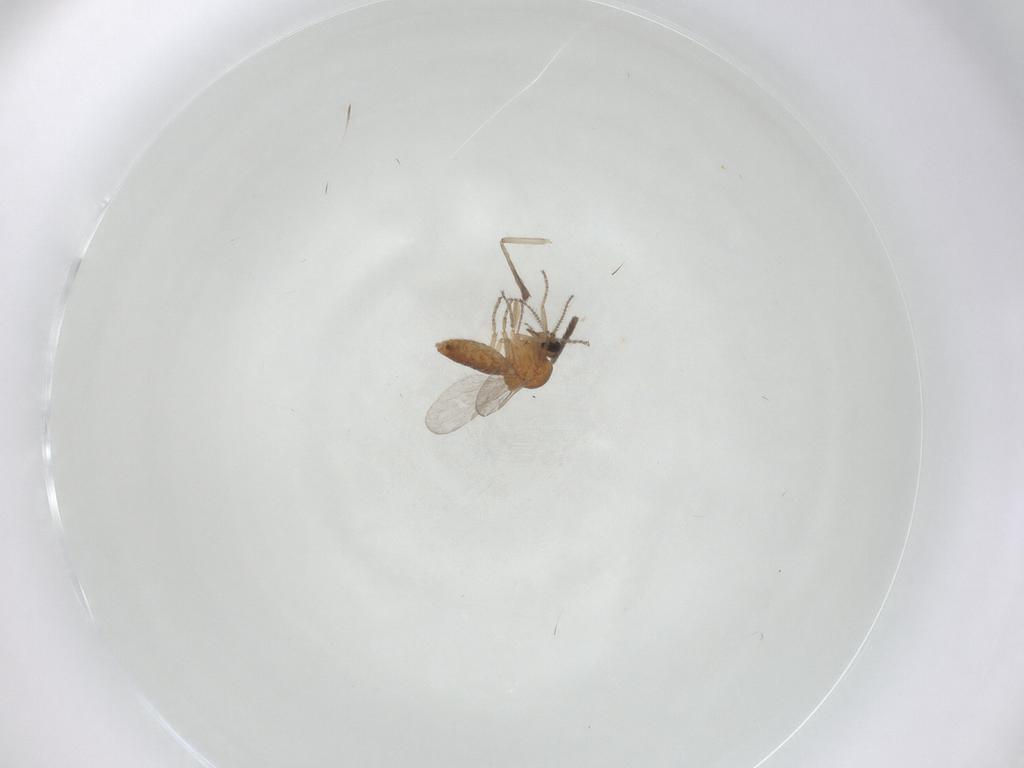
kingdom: Animalia
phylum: Arthropoda
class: Insecta
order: Diptera
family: Ceratopogonidae
